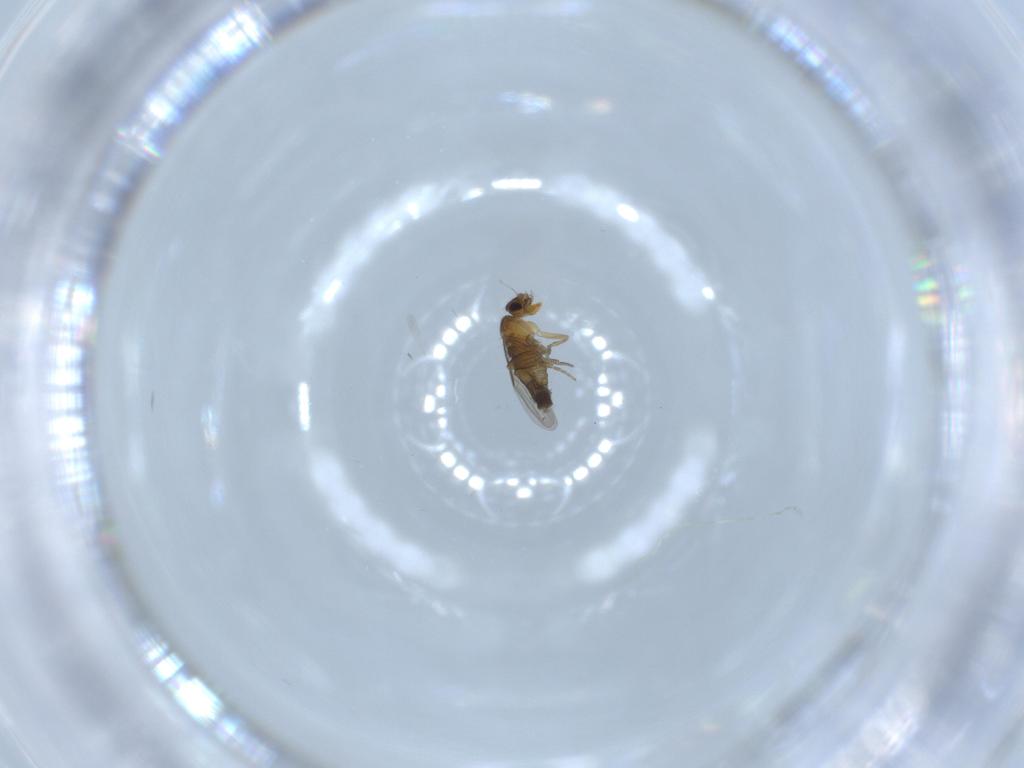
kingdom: Animalia
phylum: Arthropoda
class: Insecta
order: Diptera
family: Phoridae
